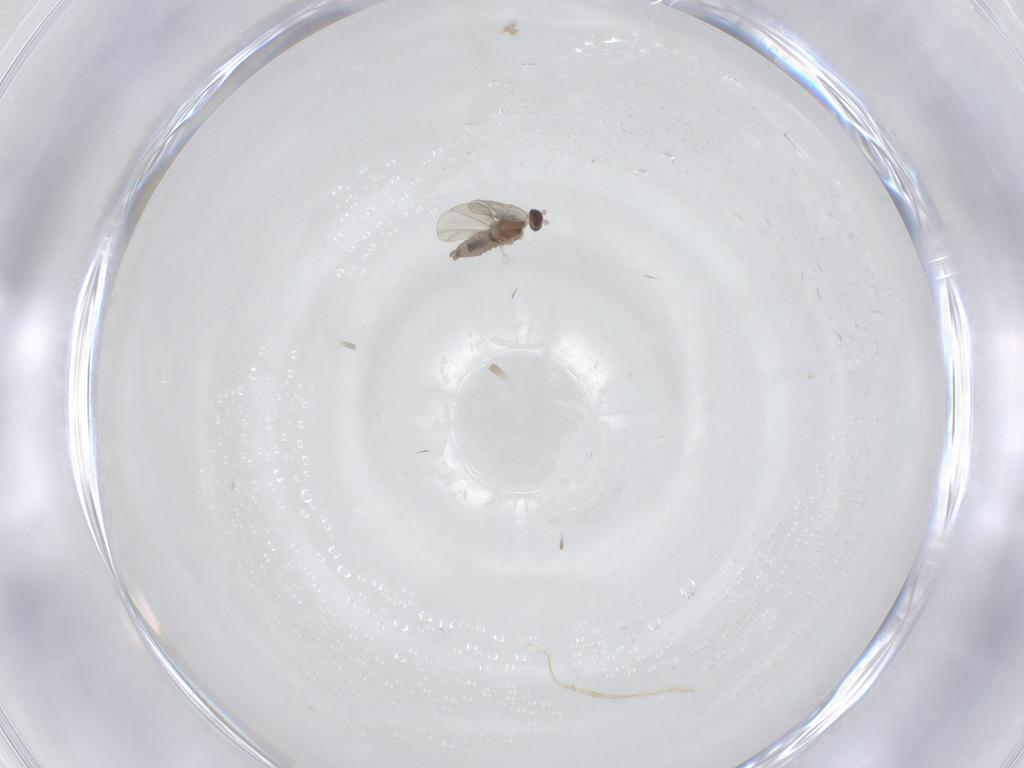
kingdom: Animalia
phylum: Arthropoda
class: Insecta
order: Diptera
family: Cecidomyiidae
